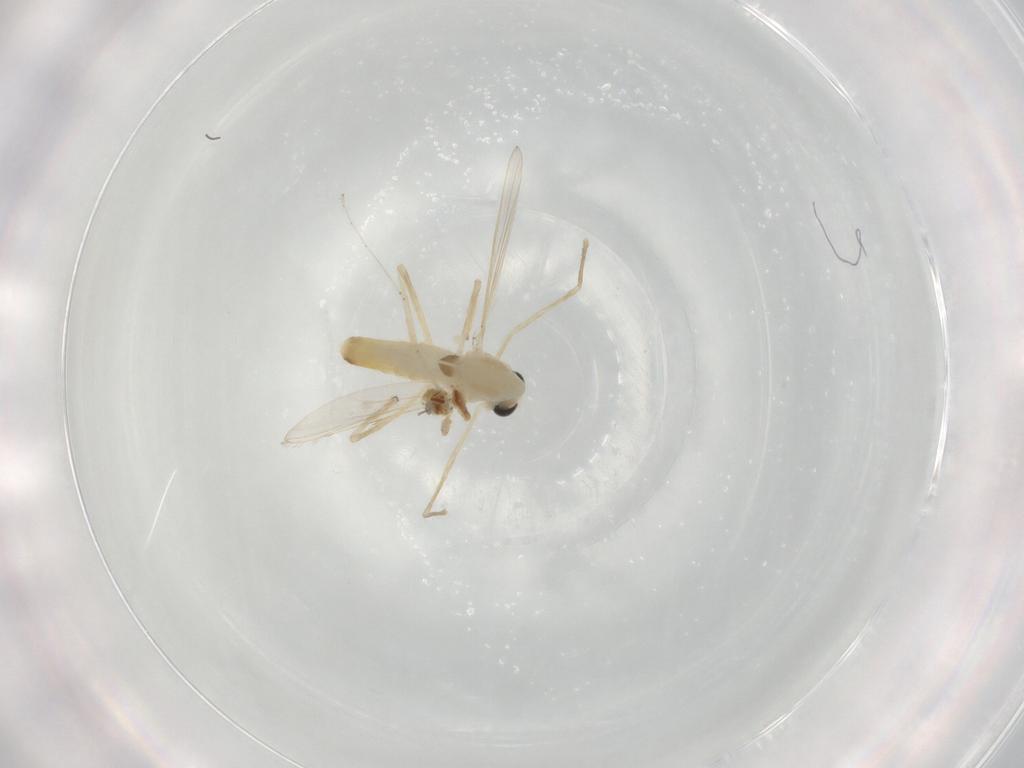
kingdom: Animalia
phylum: Arthropoda
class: Insecta
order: Diptera
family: Chironomidae
